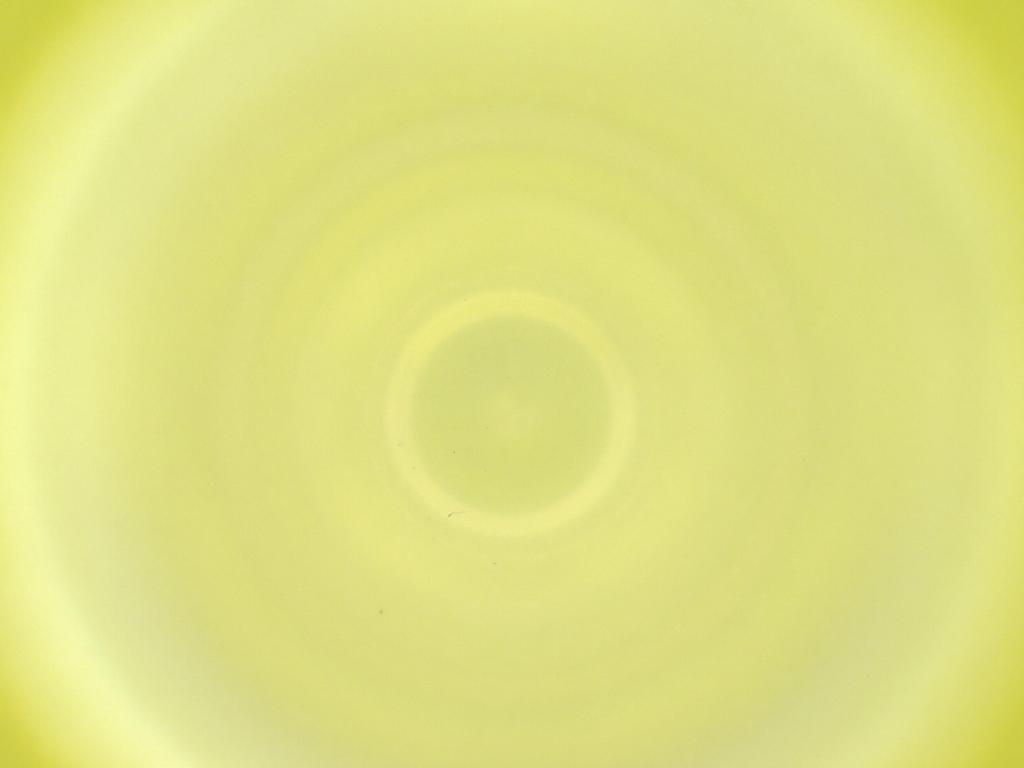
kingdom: Animalia
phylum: Arthropoda
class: Insecta
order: Diptera
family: Cecidomyiidae
